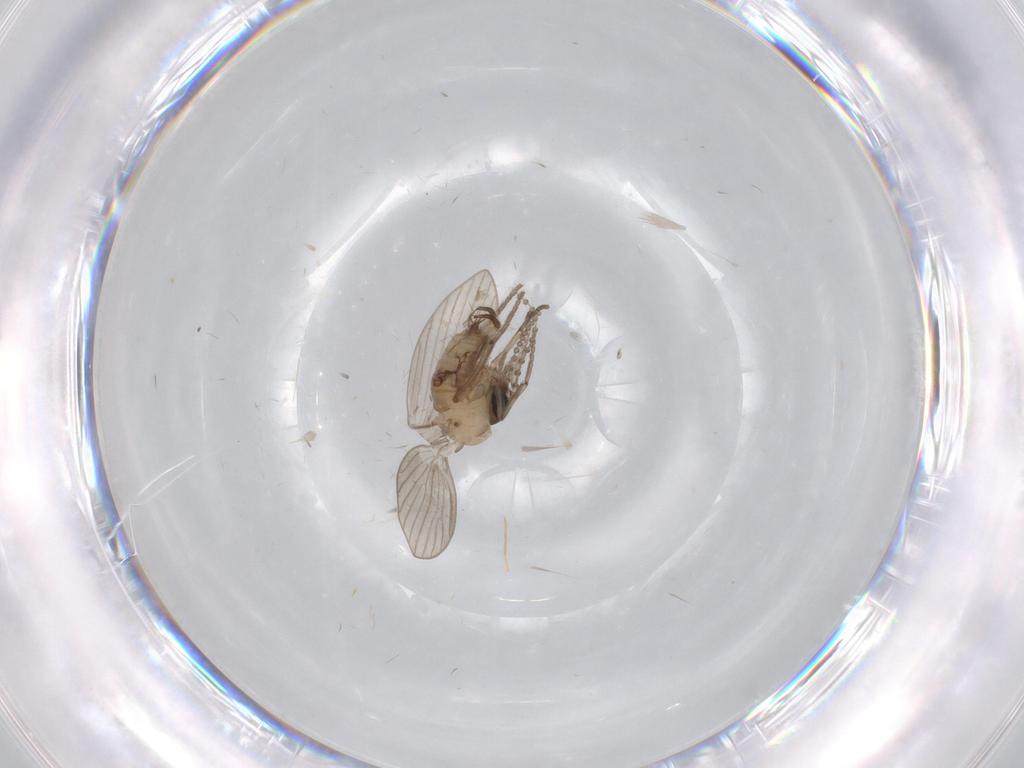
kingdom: Animalia
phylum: Arthropoda
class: Insecta
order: Diptera
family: Psychodidae
